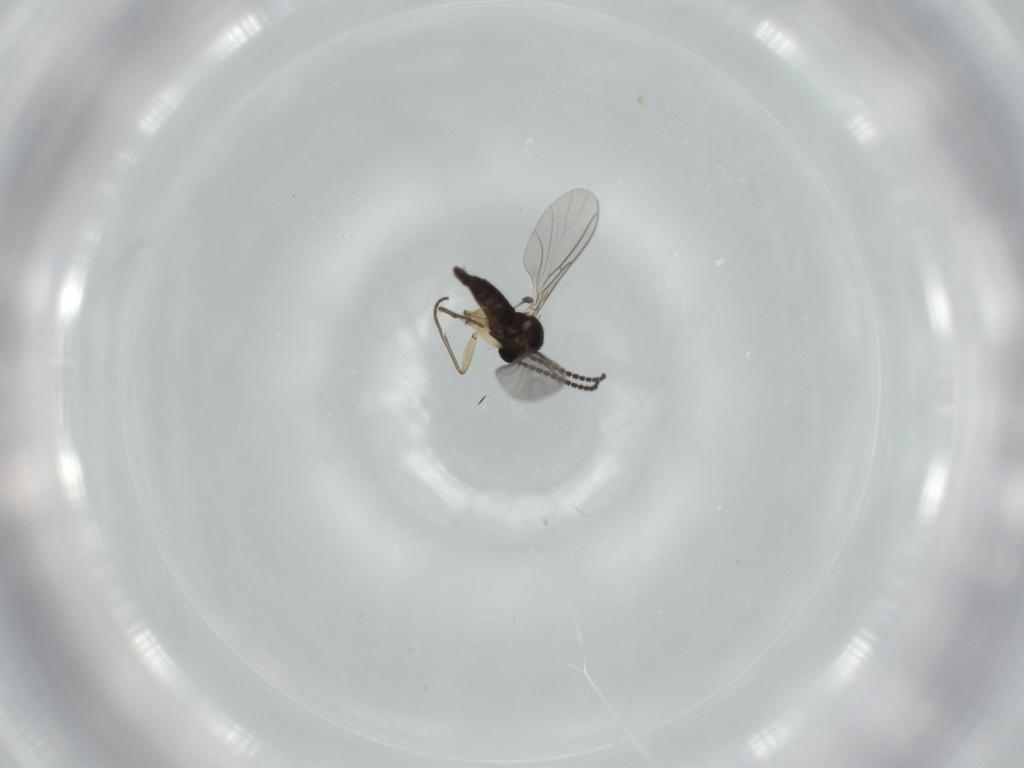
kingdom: Animalia
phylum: Arthropoda
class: Insecta
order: Diptera
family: Sciaridae
